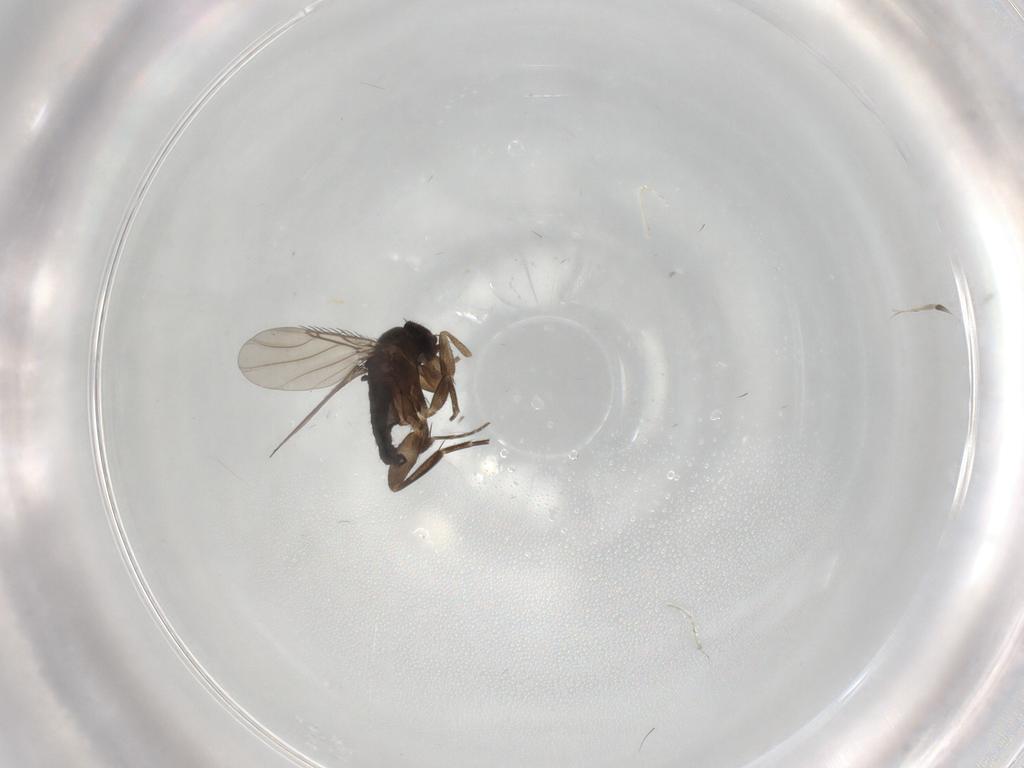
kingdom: Animalia
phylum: Arthropoda
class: Insecta
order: Diptera
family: Phoridae
